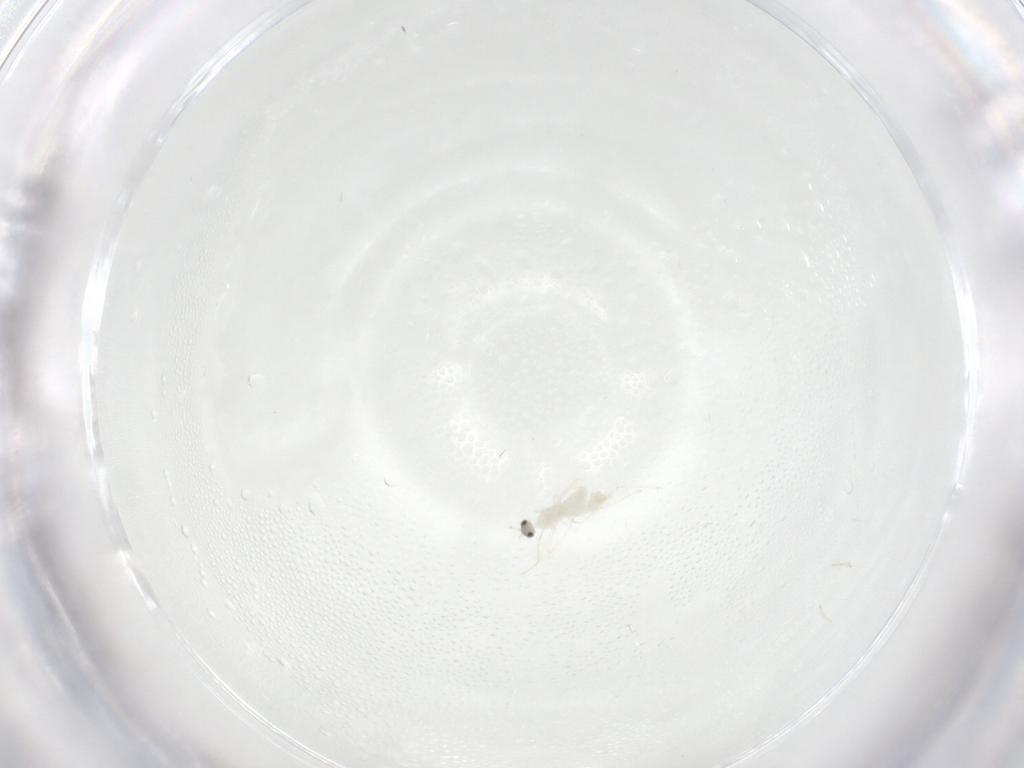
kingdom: Animalia
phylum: Arthropoda
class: Insecta
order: Diptera
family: Cecidomyiidae
